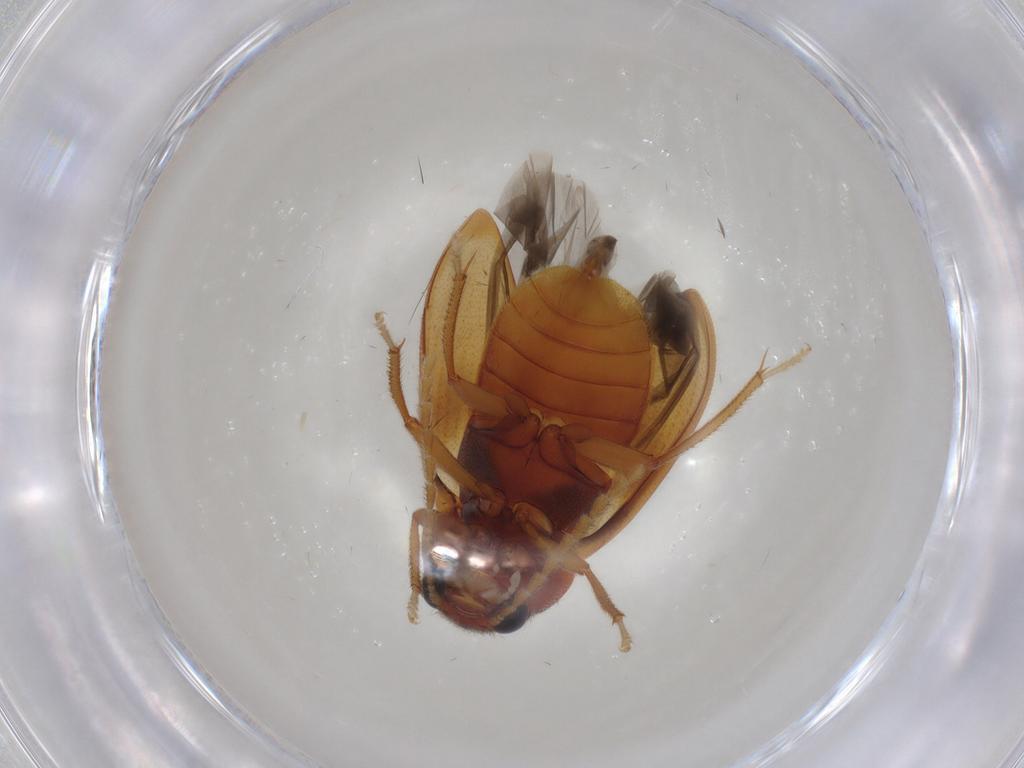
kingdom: Animalia
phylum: Arthropoda
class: Insecta
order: Coleoptera
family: Ptilodactylidae
